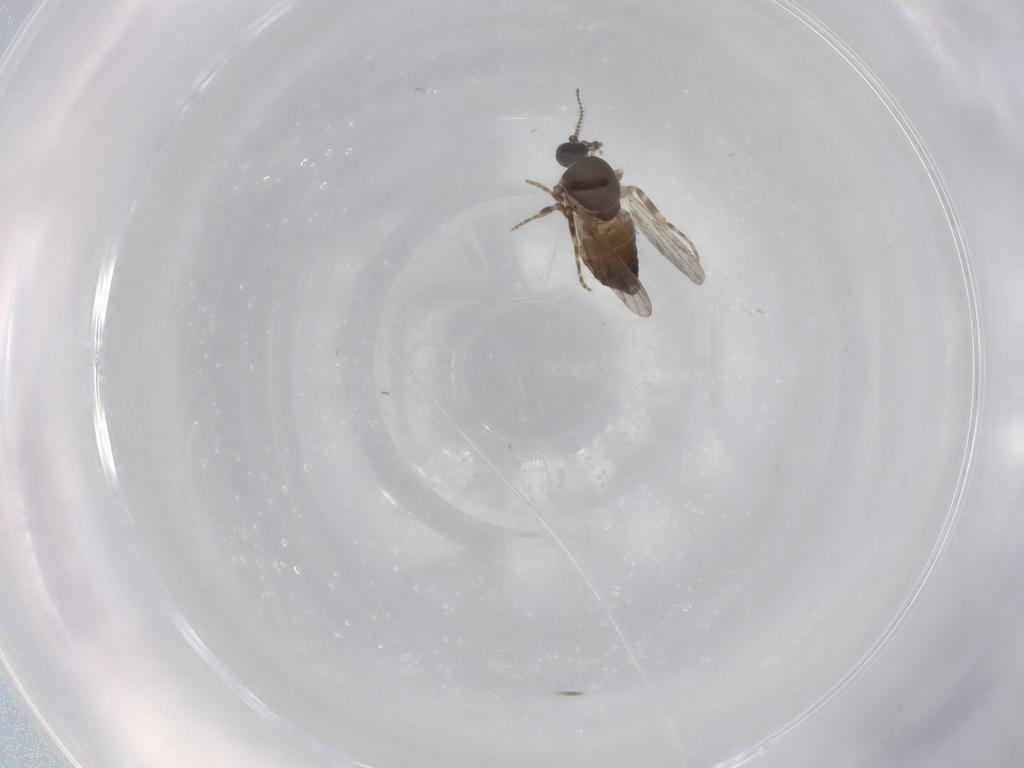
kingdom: Animalia
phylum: Arthropoda
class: Insecta
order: Diptera
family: Ceratopogonidae
